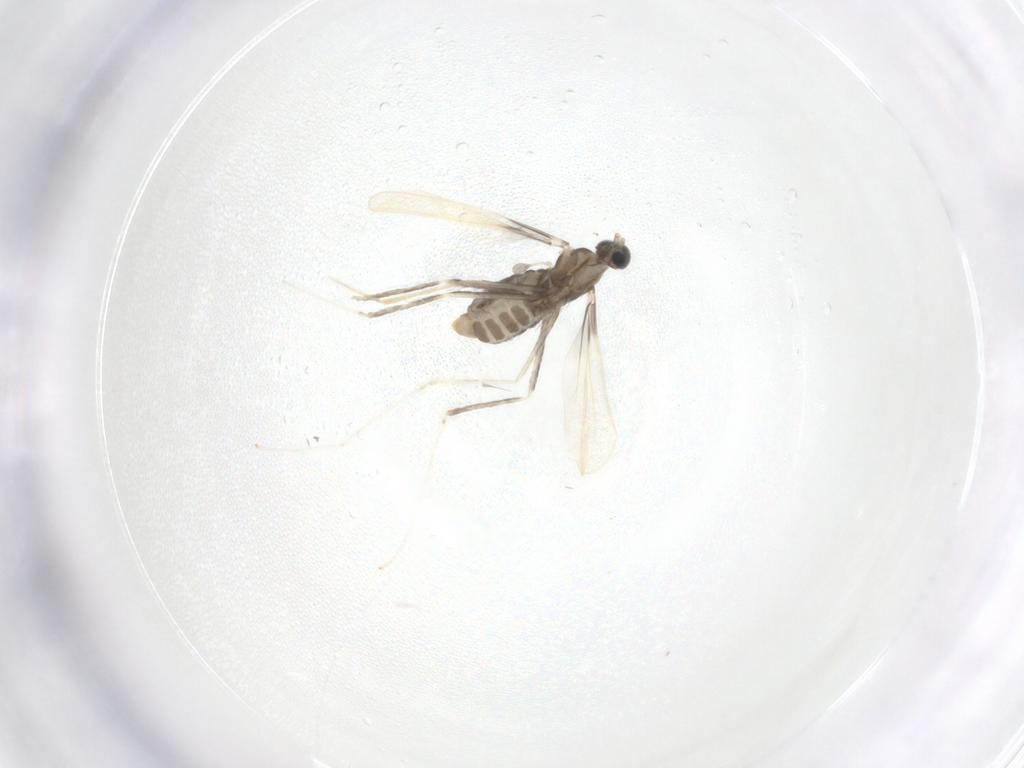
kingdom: Animalia
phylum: Arthropoda
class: Insecta
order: Diptera
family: Cecidomyiidae
